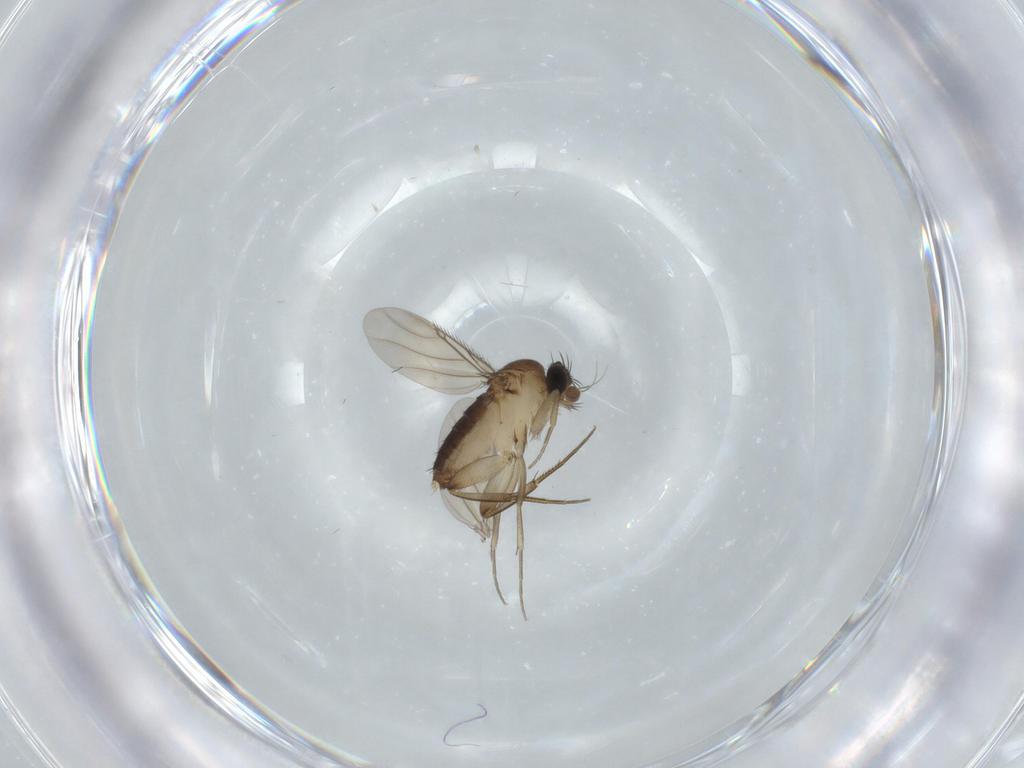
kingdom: Animalia
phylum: Arthropoda
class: Insecta
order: Diptera
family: Phoridae
